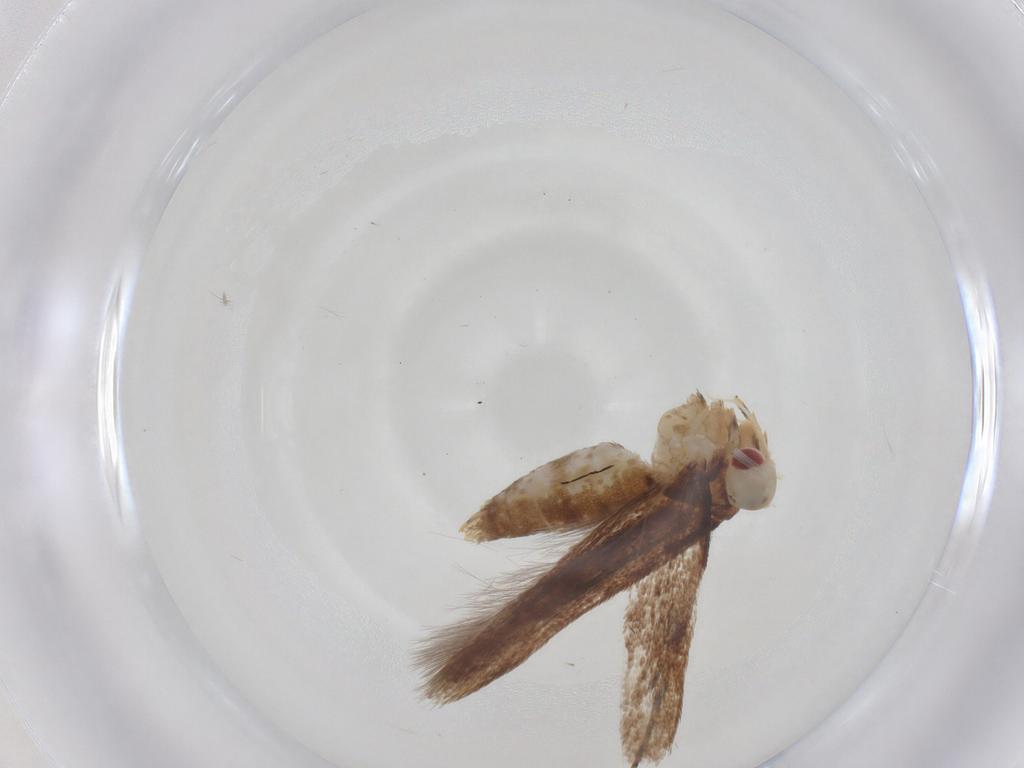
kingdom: Animalia
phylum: Arthropoda
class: Insecta
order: Lepidoptera
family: Cosmopterigidae
